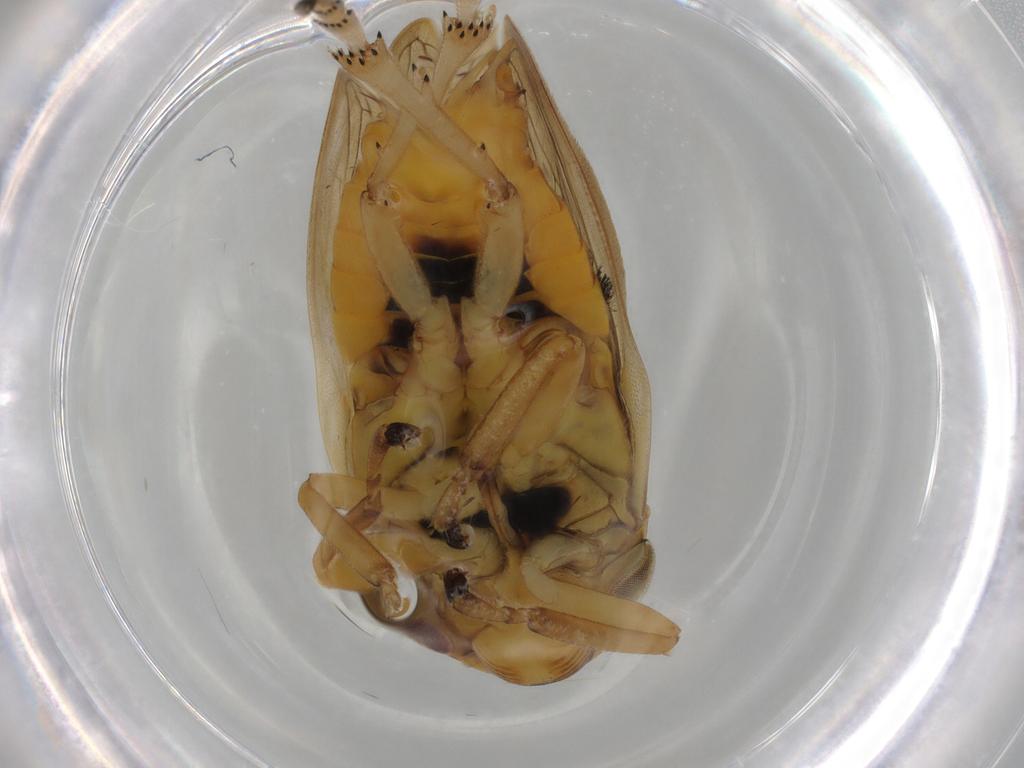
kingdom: Animalia
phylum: Arthropoda
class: Insecta
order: Hemiptera
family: Aphrophoridae
